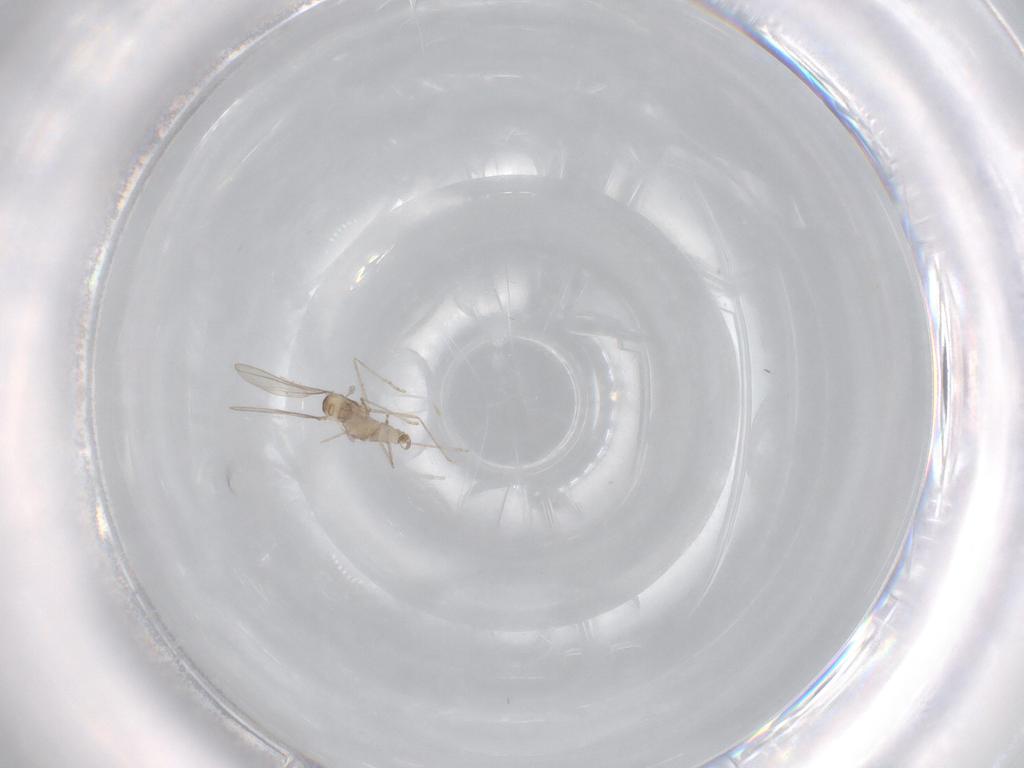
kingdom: Animalia
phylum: Arthropoda
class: Insecta
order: Diptera
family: Cecidomyiidae
